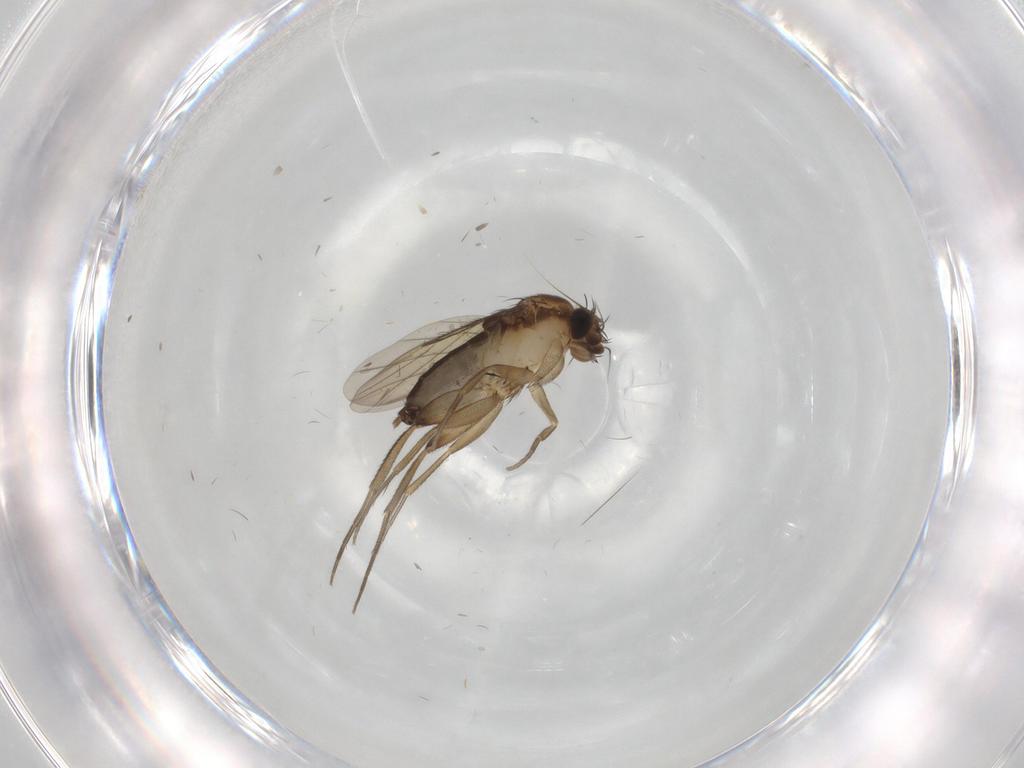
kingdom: Animalia
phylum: Arthropoda
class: Insecta
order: Diptera
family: Phoridae
